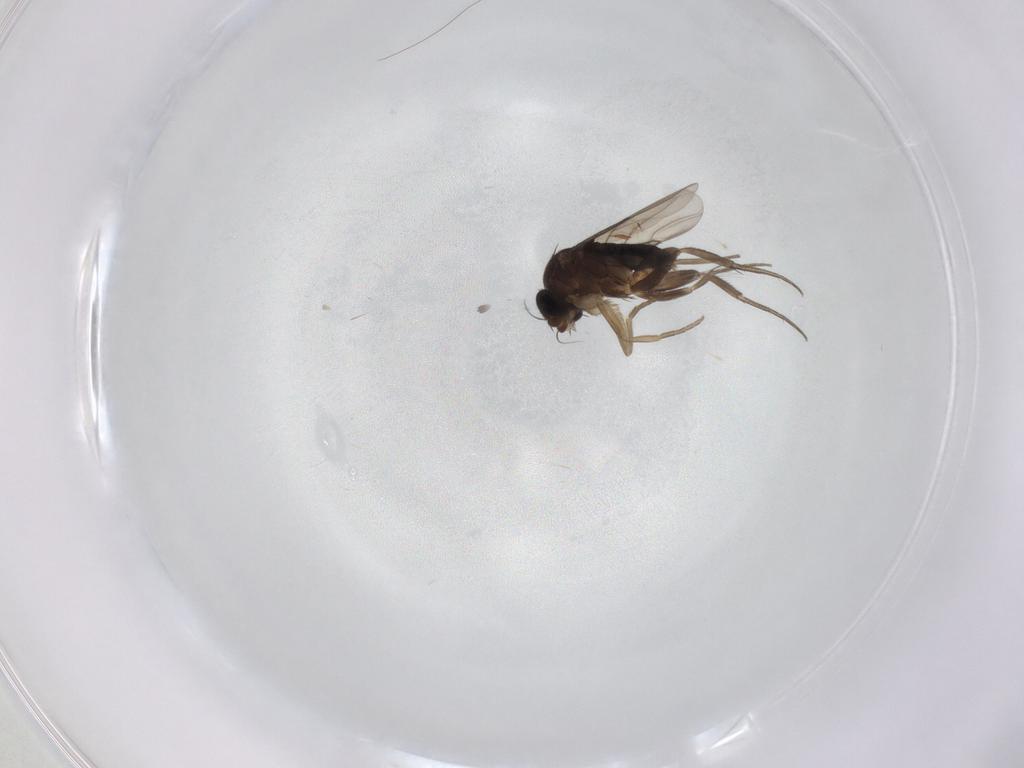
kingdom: Animalia
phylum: Arthropoda
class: Insecta
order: Diptera
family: Phoridae
